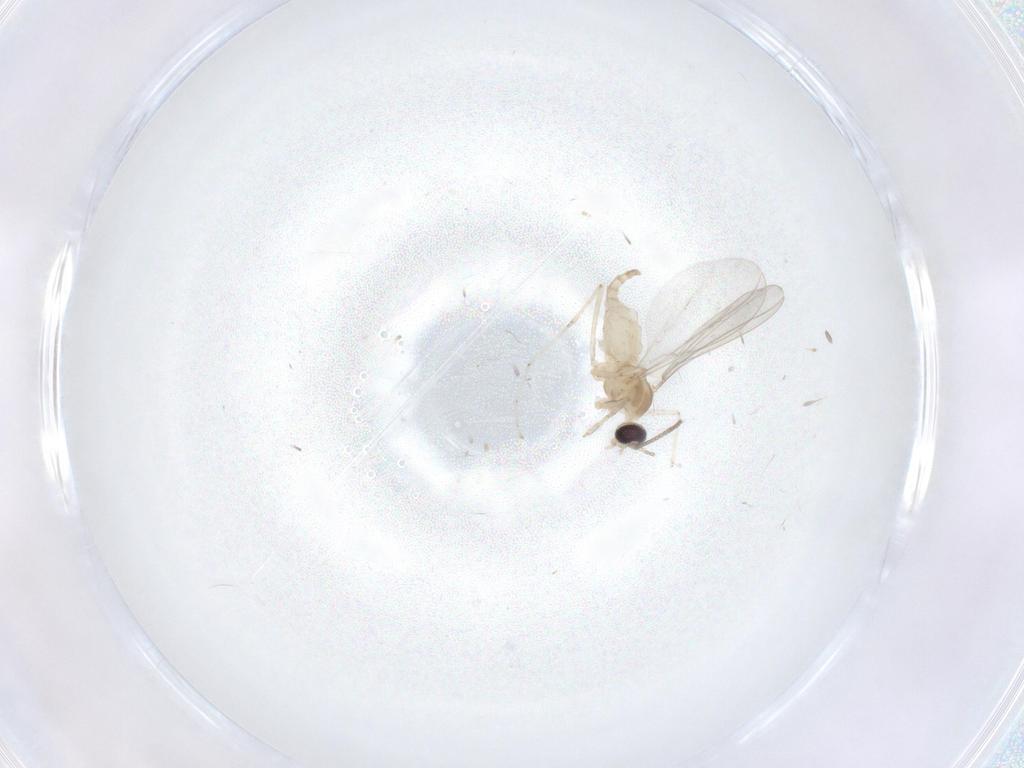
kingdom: Animalia
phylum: Arthropoda
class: Insecta
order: Diptera
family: Cecidomyiidae
